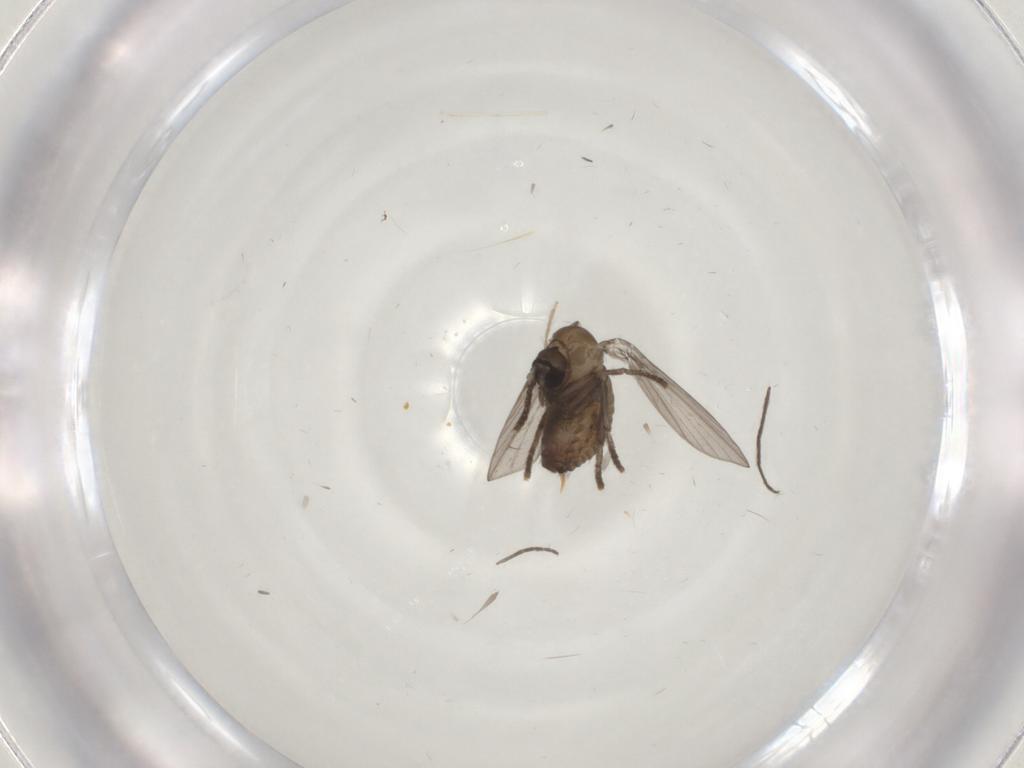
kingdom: Animalia
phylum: Arthropoda
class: Insecta
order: Diptera
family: Psychodidae
